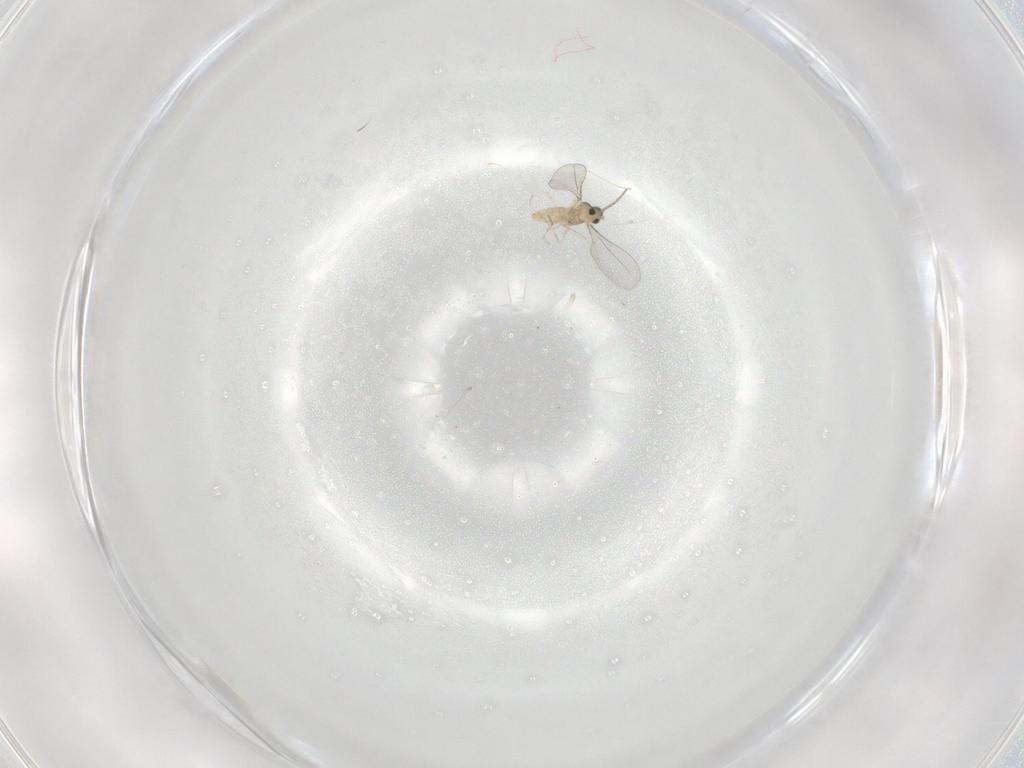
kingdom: Animalia
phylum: Arthropoda
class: Insecta
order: Diptera
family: Cecidomyiidae
